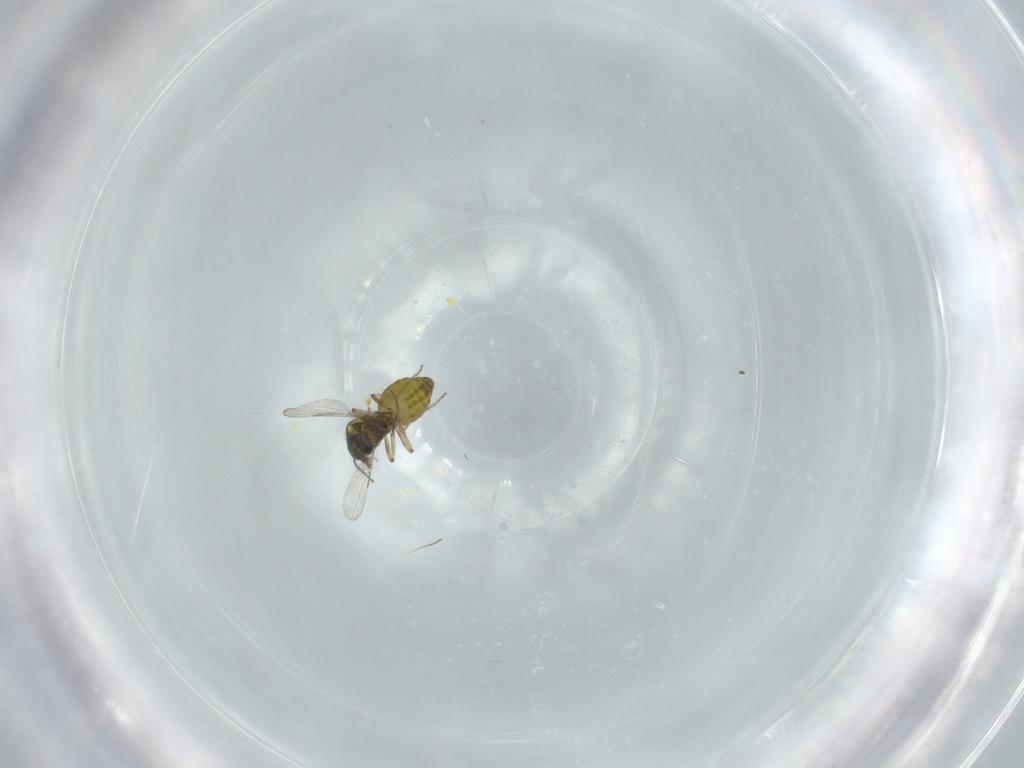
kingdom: Animalia
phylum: Arthropoda
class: Insecta
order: Diptera
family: Ceratopogonidae
